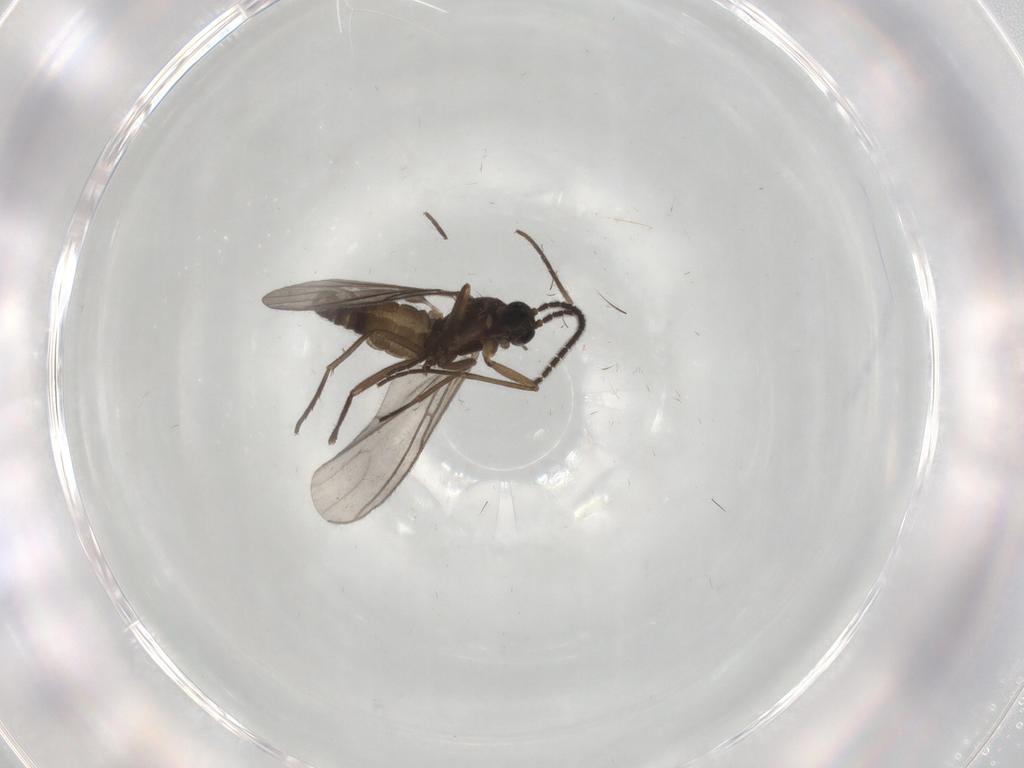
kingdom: Animalia
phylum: Arthropoda
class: Insecta
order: Diptera
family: Sciaridae
